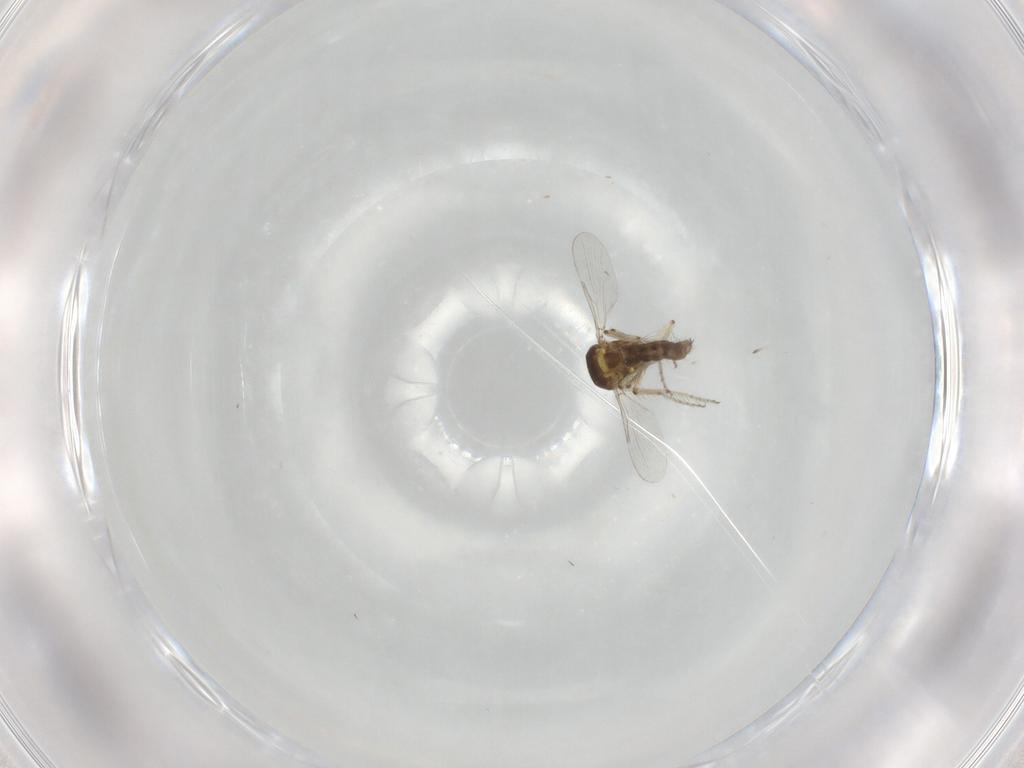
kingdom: Animalia
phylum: Arthropoda
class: Insecta
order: Diptera
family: Ceratopogonidae
